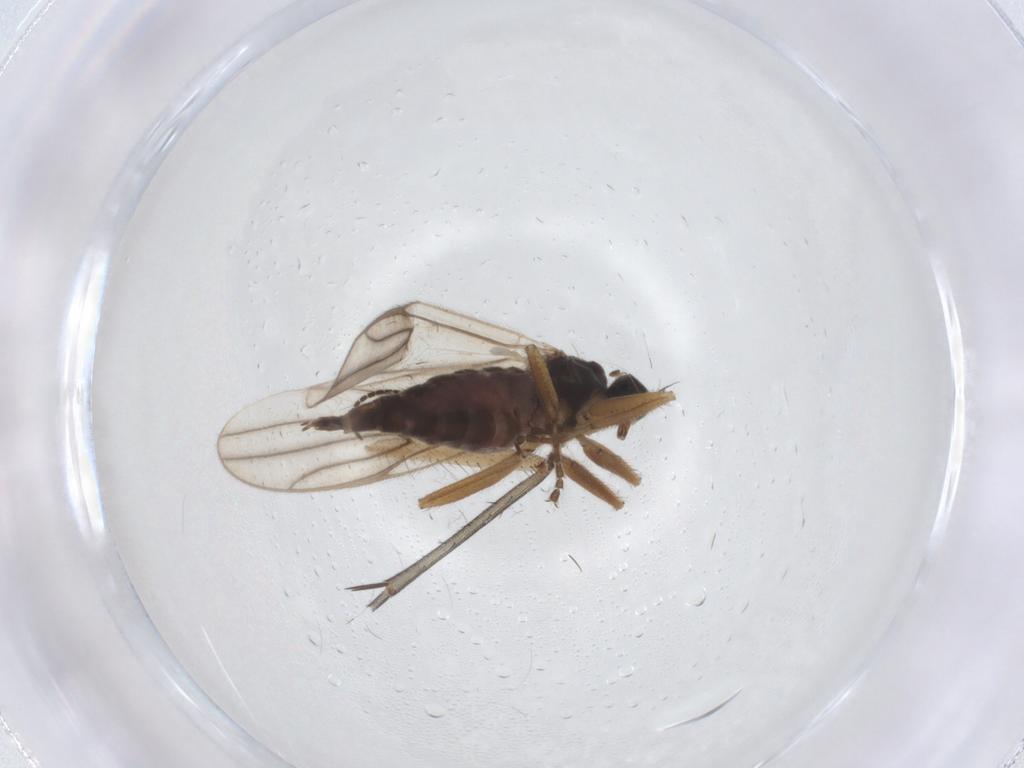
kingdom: Animalia
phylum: Arthropoda
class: Insecta
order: Diptera
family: Hybotidae
